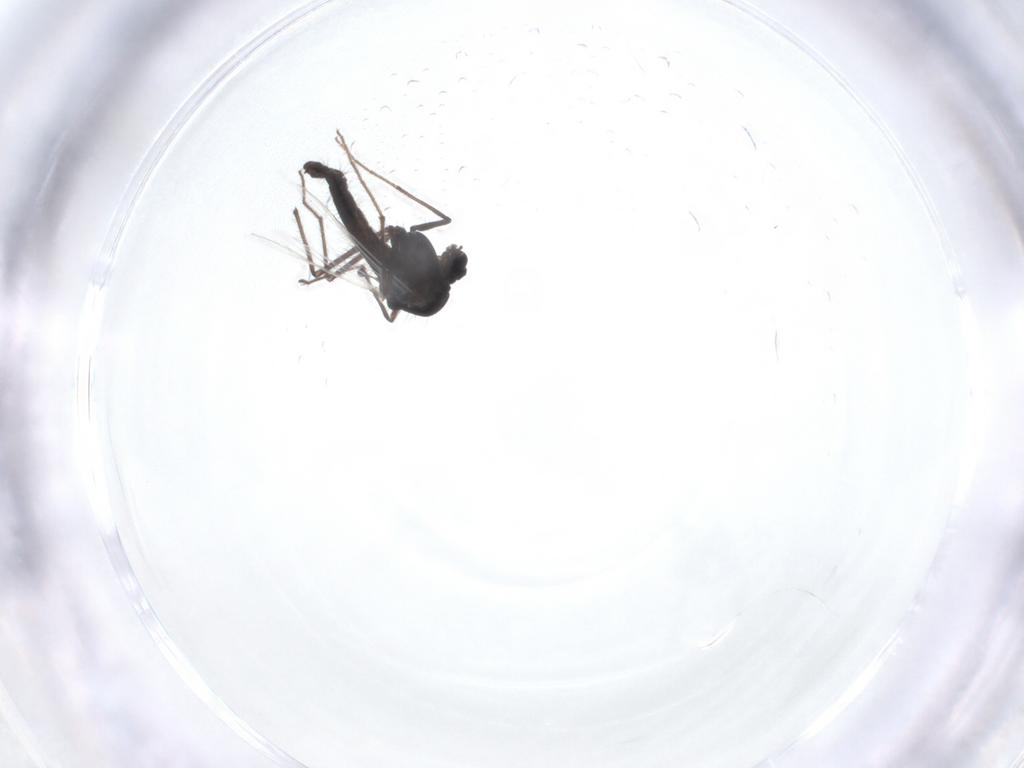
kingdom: Animalia
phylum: Arthropoda
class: Insecta
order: Diptera
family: Chironomidae
